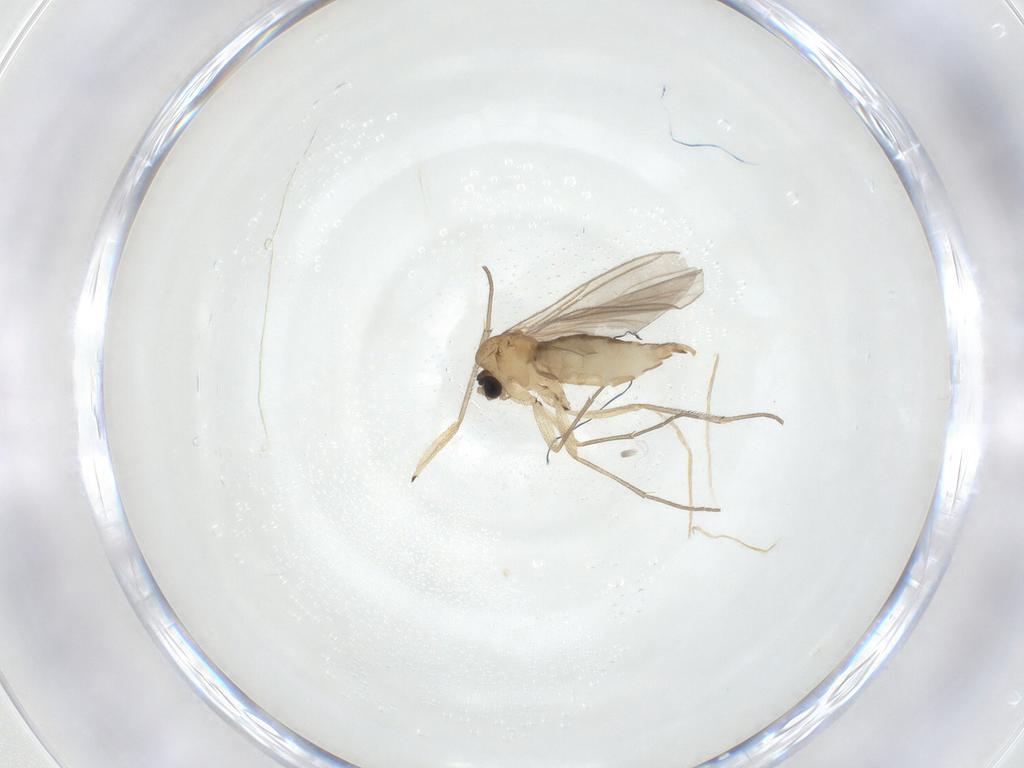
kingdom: Animalia
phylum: Arthropoda
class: Insecta
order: Diptera
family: Sciaridae
